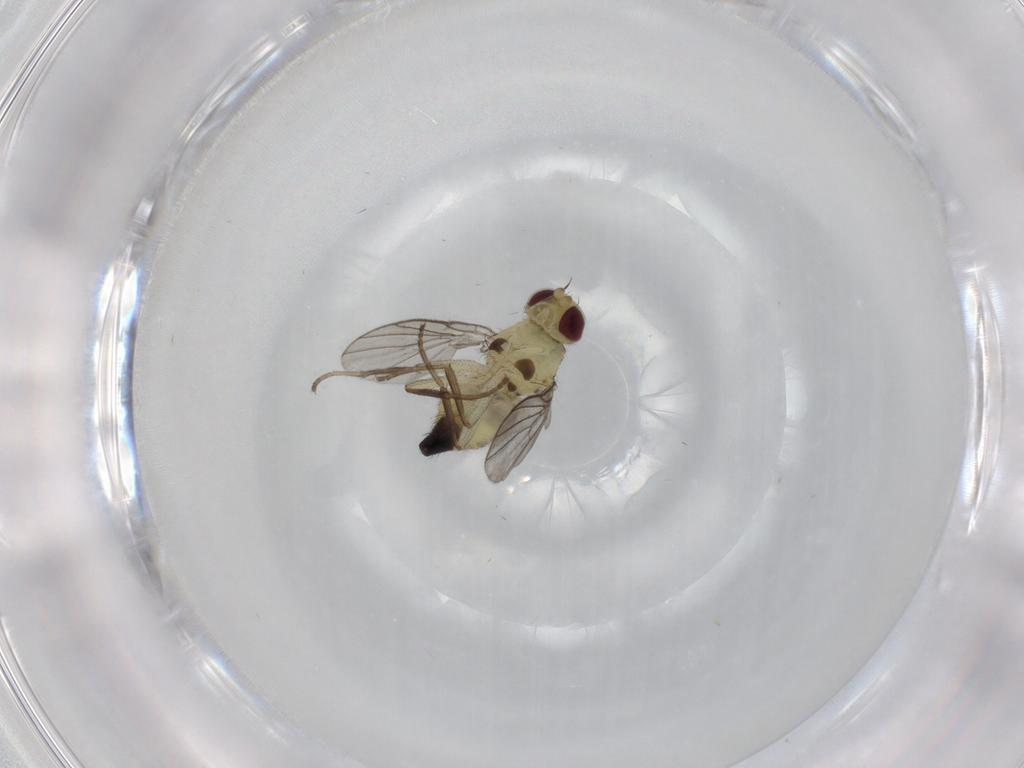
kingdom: Animalia
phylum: Arthropoda
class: Insecta
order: Diptera
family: Agromyzidae
